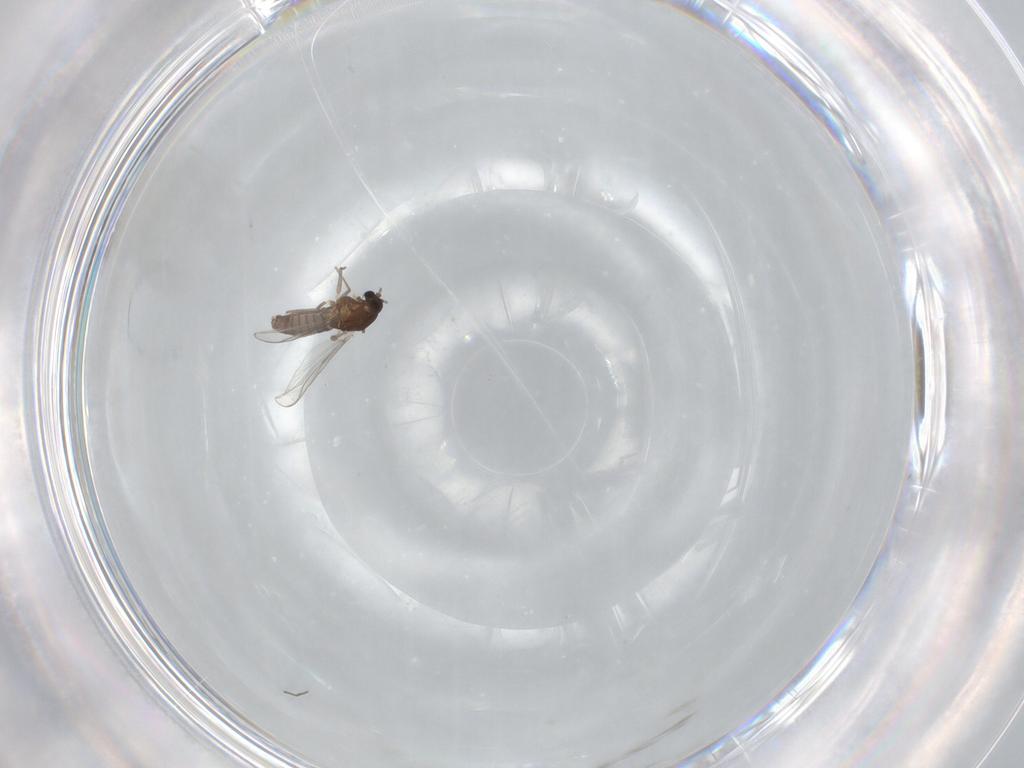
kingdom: Animalia
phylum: Arthropoda
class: Insecta
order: Diptera
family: Chironomidae
